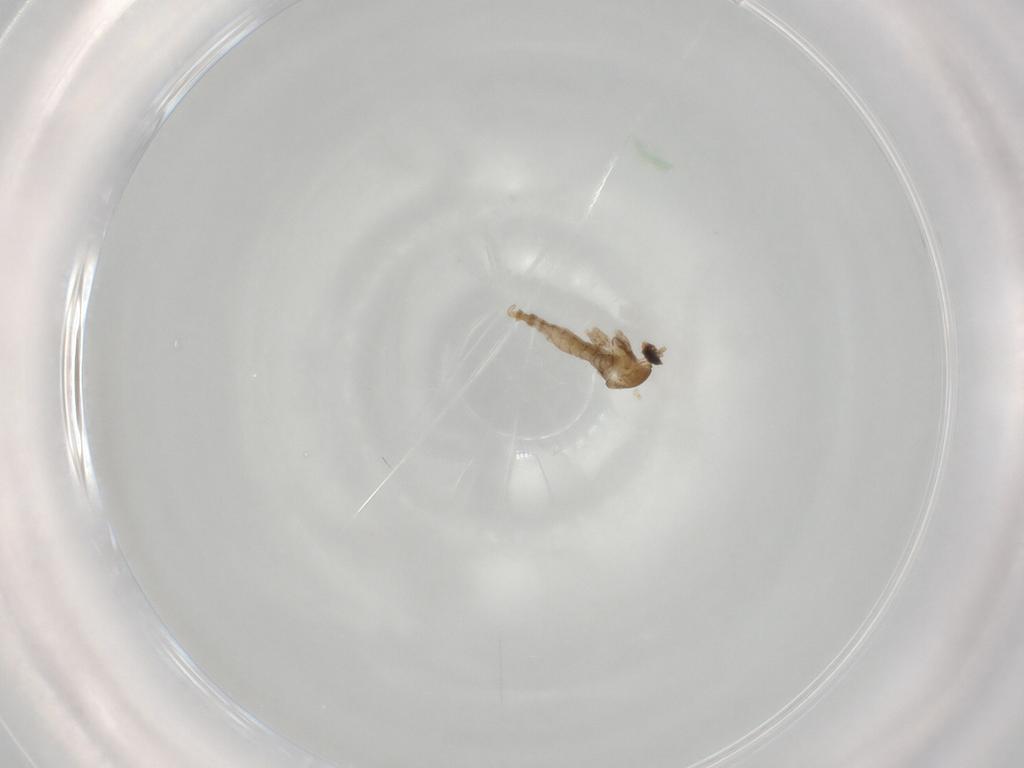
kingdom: Animalia
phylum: Arthropoda
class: Insecta
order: Diptera
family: Cecidomyiidae
